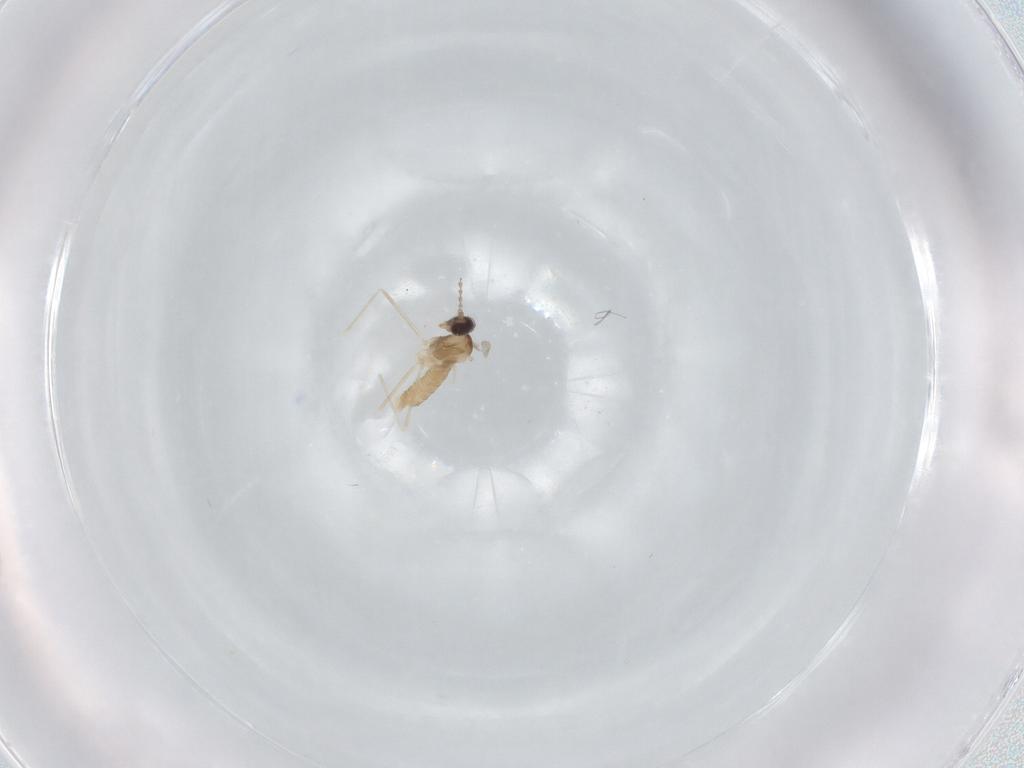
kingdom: Animalia
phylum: Arthropoda
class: Insecta
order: Diptera
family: Cecidomyiidae
